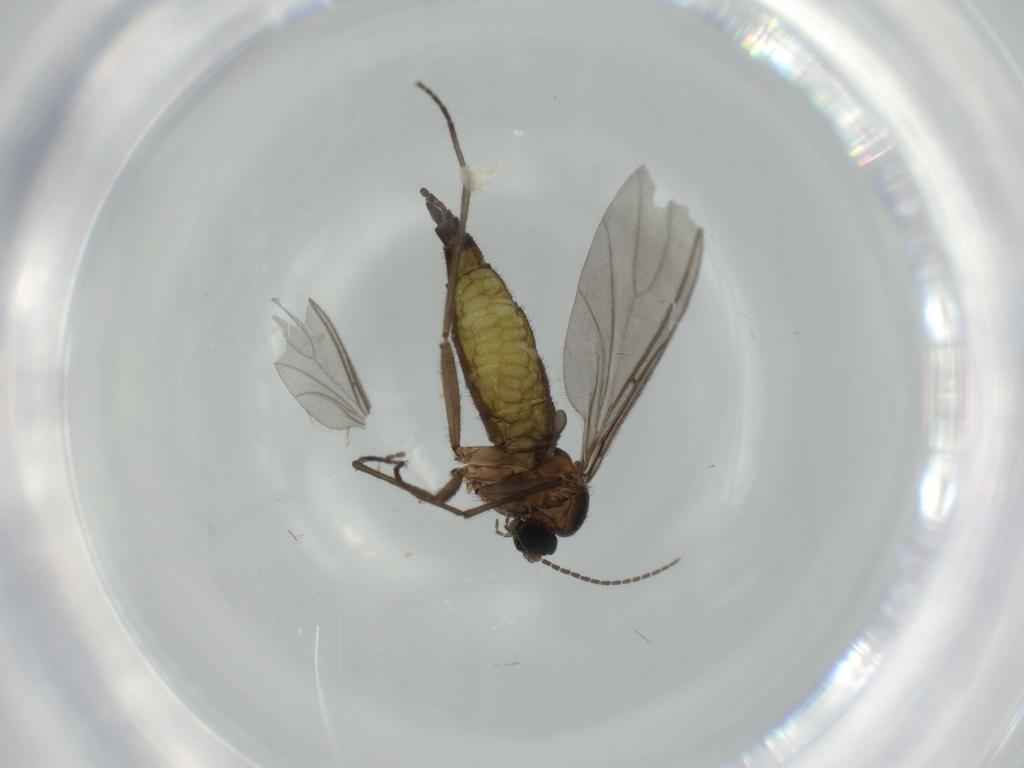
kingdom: Animalia
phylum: Arthropoda
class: Insecta
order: Diptera
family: Sciaridae
